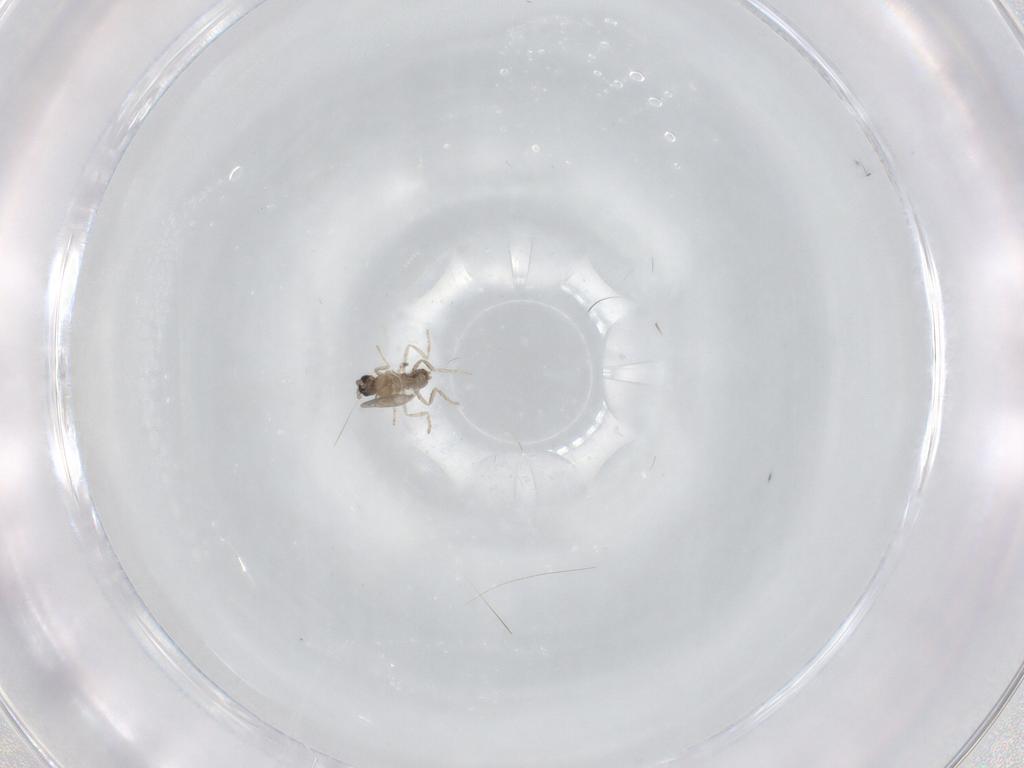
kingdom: Animalia
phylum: Arthropoda
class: Insecta
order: Diptera
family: Cecidomyiidae
